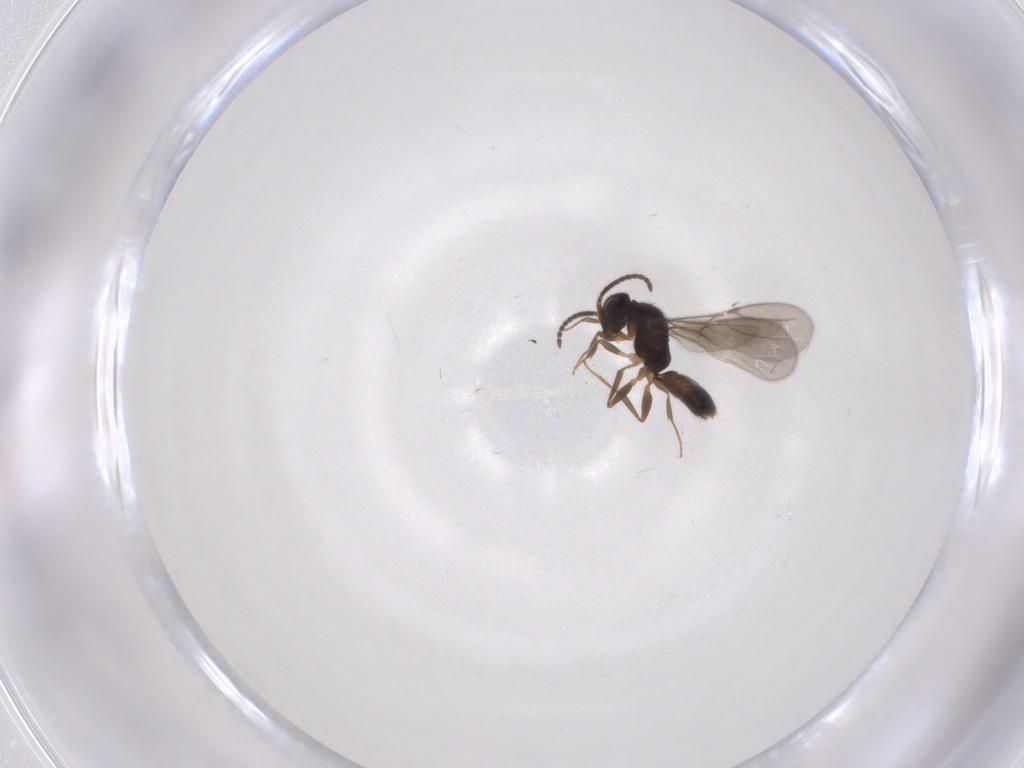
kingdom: Animalia
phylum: Arthropoda
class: Insecta
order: Hymenoptera
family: Bethylidae
